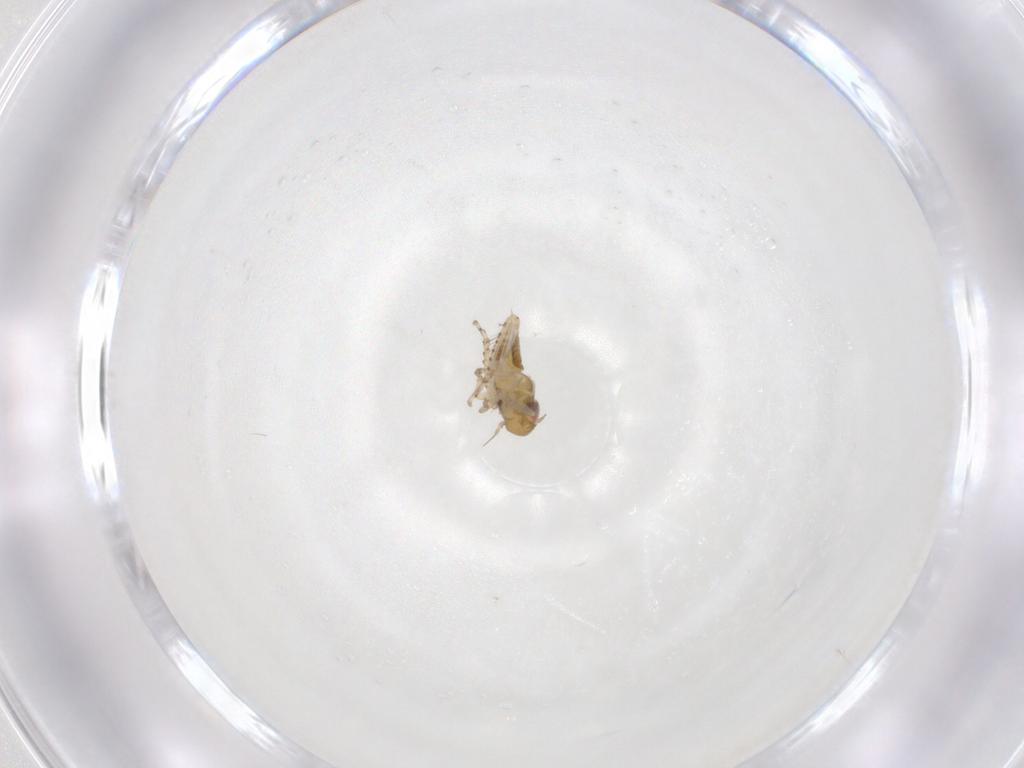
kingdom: Animalia
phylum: Arthropoda
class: Insecta
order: Hemiptera
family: Cicadellidae
